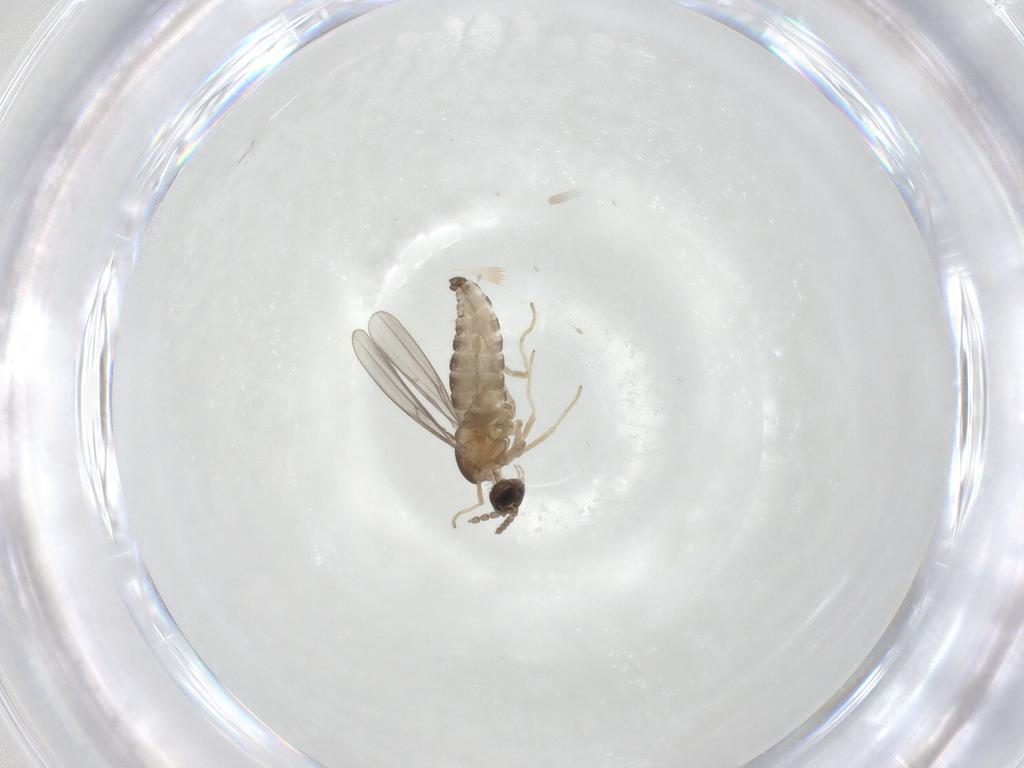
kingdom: Animalia
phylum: Arthropoda
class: Insecta
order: Diptera
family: Cecidomyiidae
